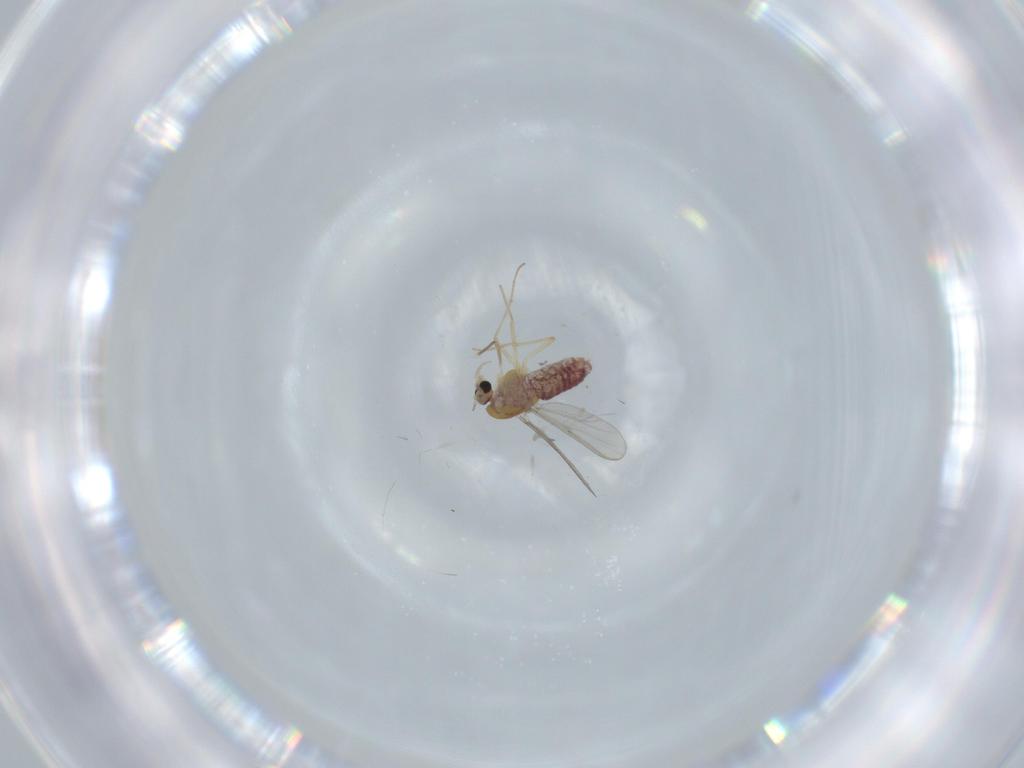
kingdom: Animalia
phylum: Arthropoda
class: Insecta
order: Diptera
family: Chironomidae
